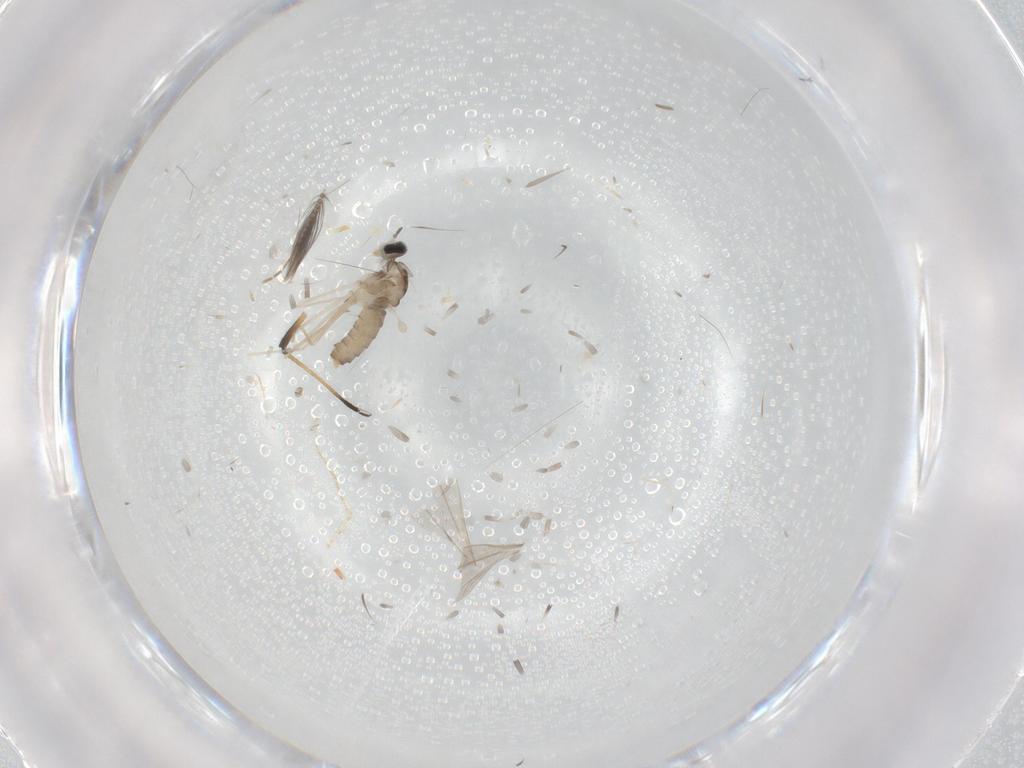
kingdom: Animalia
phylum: Arthropoda
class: Insecta
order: Diptera
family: Cecidomyiidae
